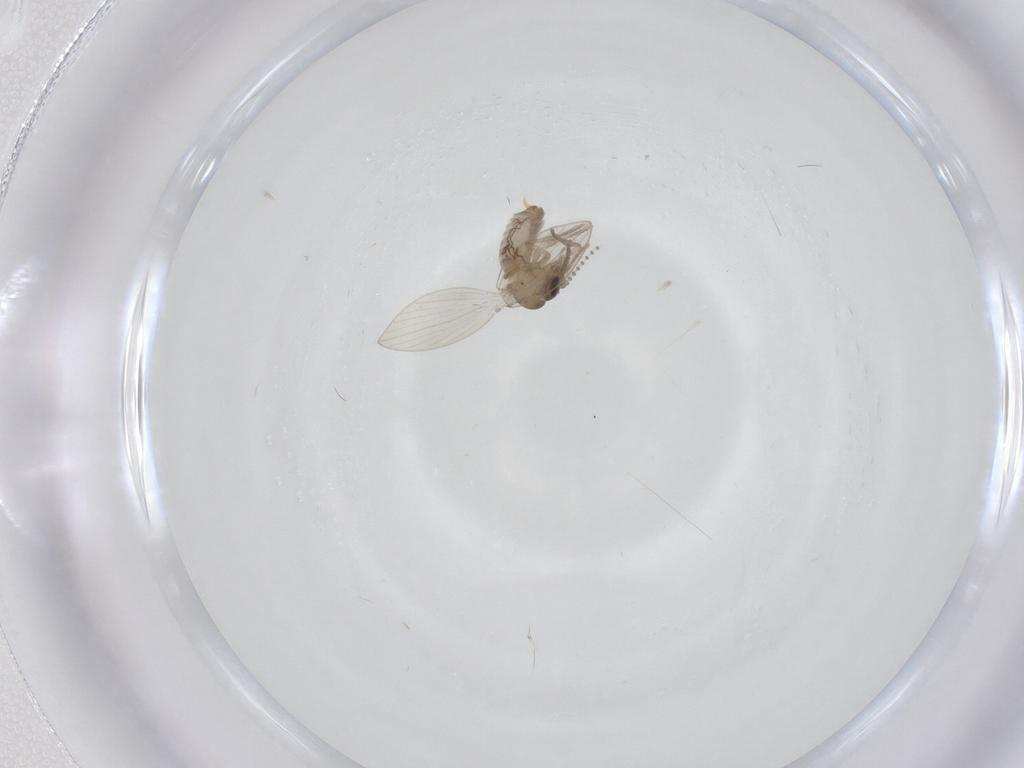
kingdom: Animalia
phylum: Arthropoda
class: Insecta
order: Diptera
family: Psychodidae
